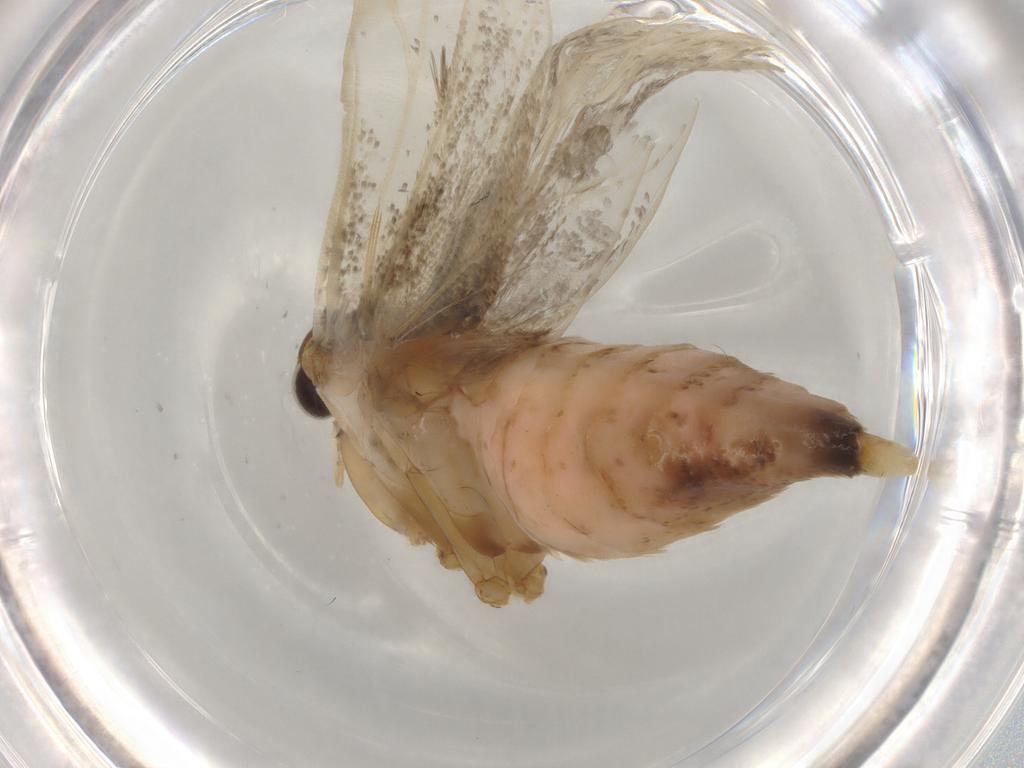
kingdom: Animalia
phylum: Arthropoda
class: Insecta
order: Lepidoptera
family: Gelechiidae
